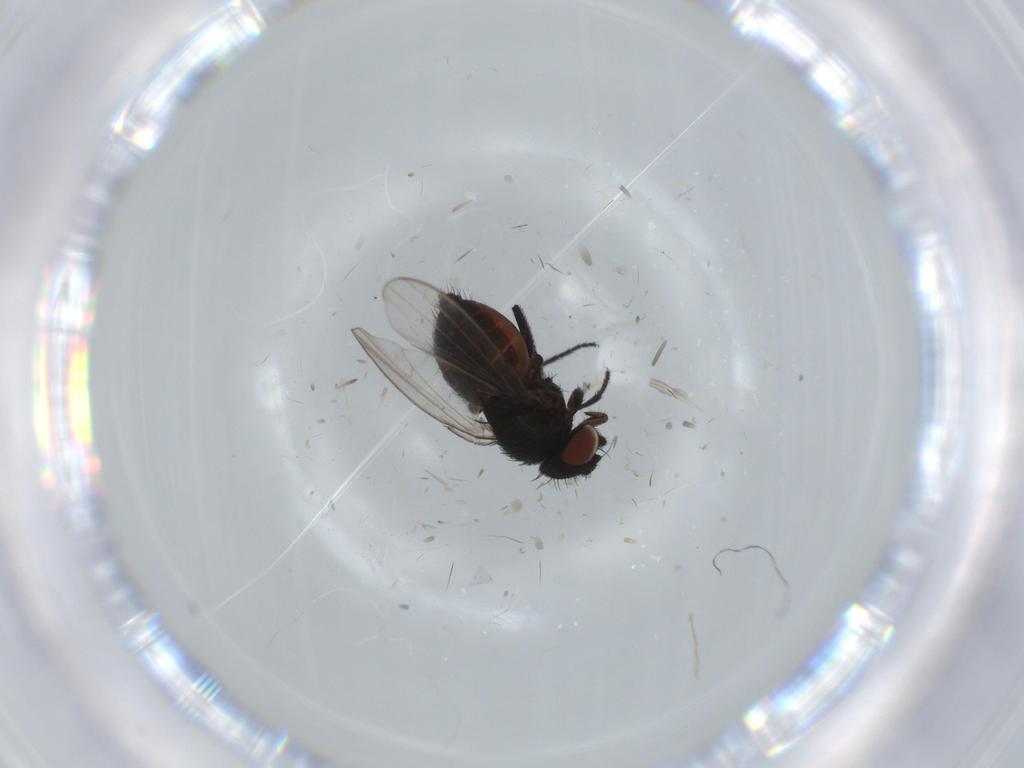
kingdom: Animalia
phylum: Arthropoda
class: Insecta
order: Diptera
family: Milichiidae
